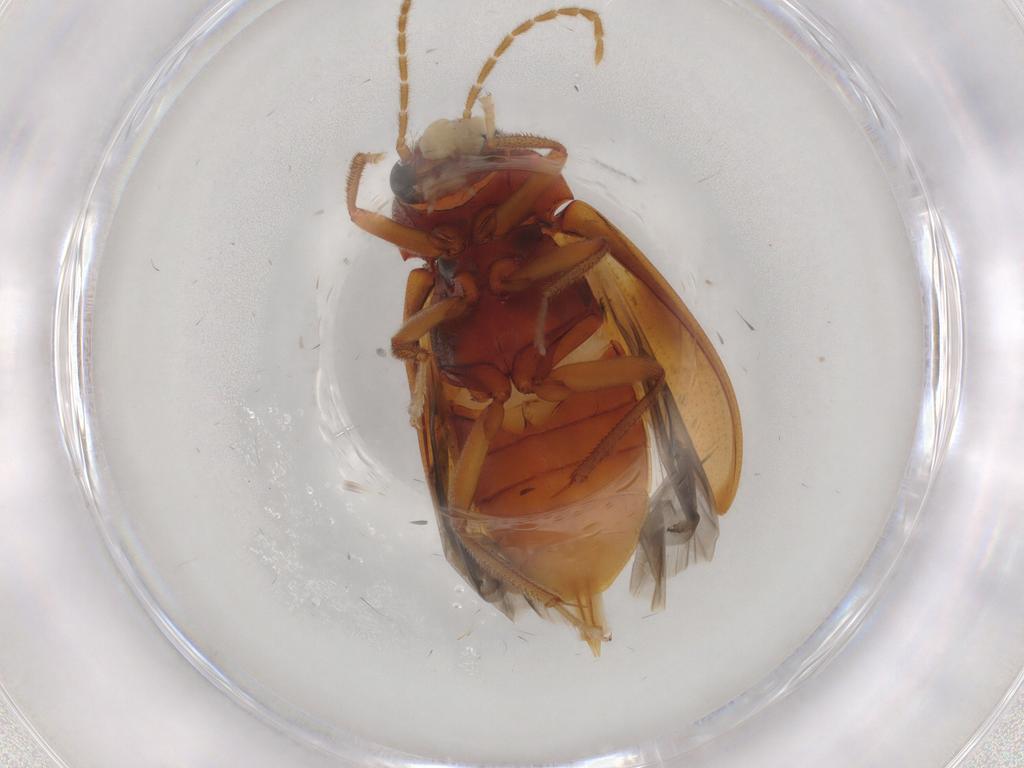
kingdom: Animalia
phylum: Arthropoda
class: Insecta
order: Coleoptera
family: Ptilodactylidae
